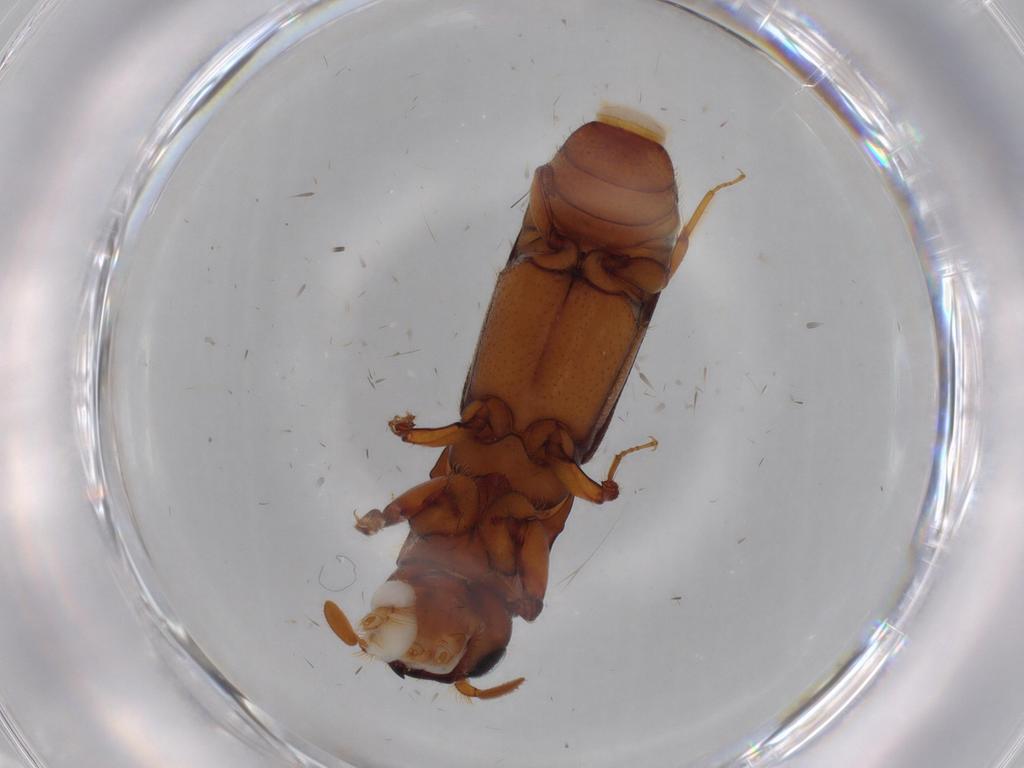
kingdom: Animalia
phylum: Arthropoda
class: Insecta
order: Coleoptera
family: Curculionidae
